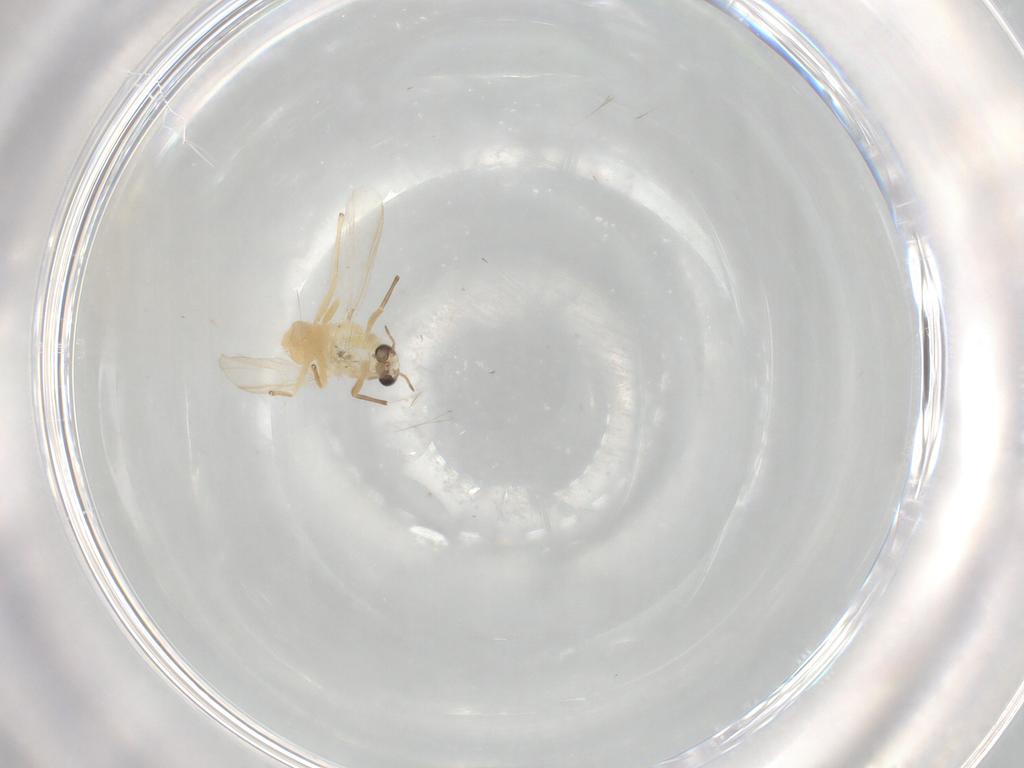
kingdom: Animalia
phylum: Arthropoda
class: Insecta
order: Diptera
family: Chironomidae
